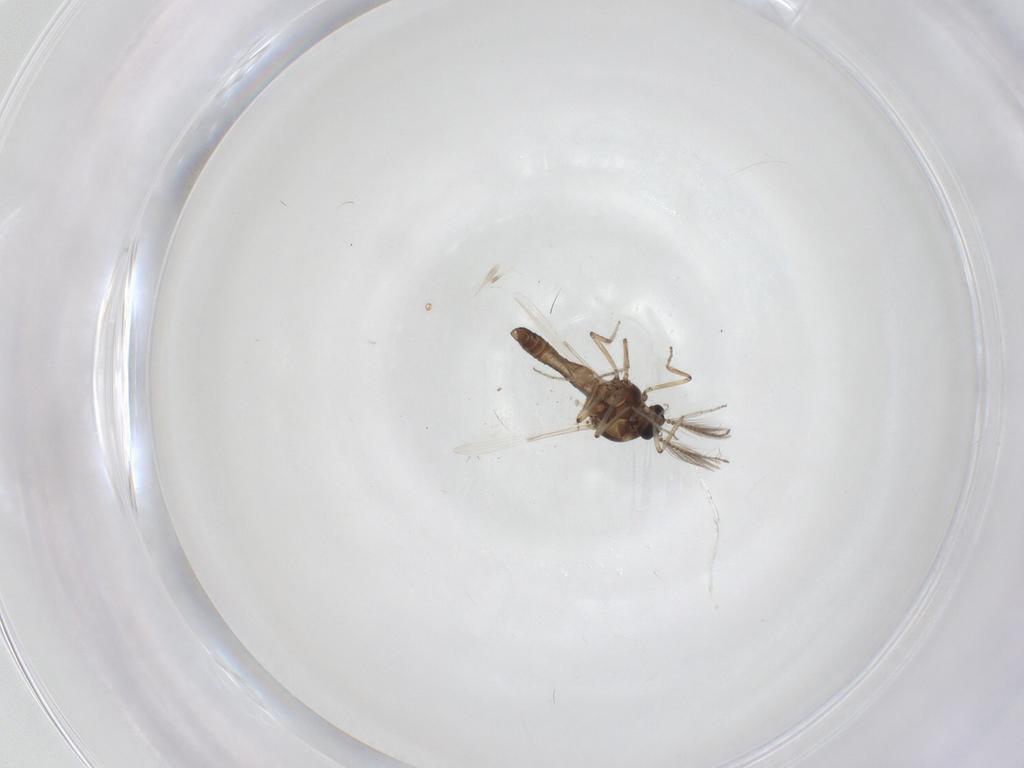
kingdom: Animalia
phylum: Arthropoda
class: Insecta
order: Diptera
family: Ceratopogonidae
